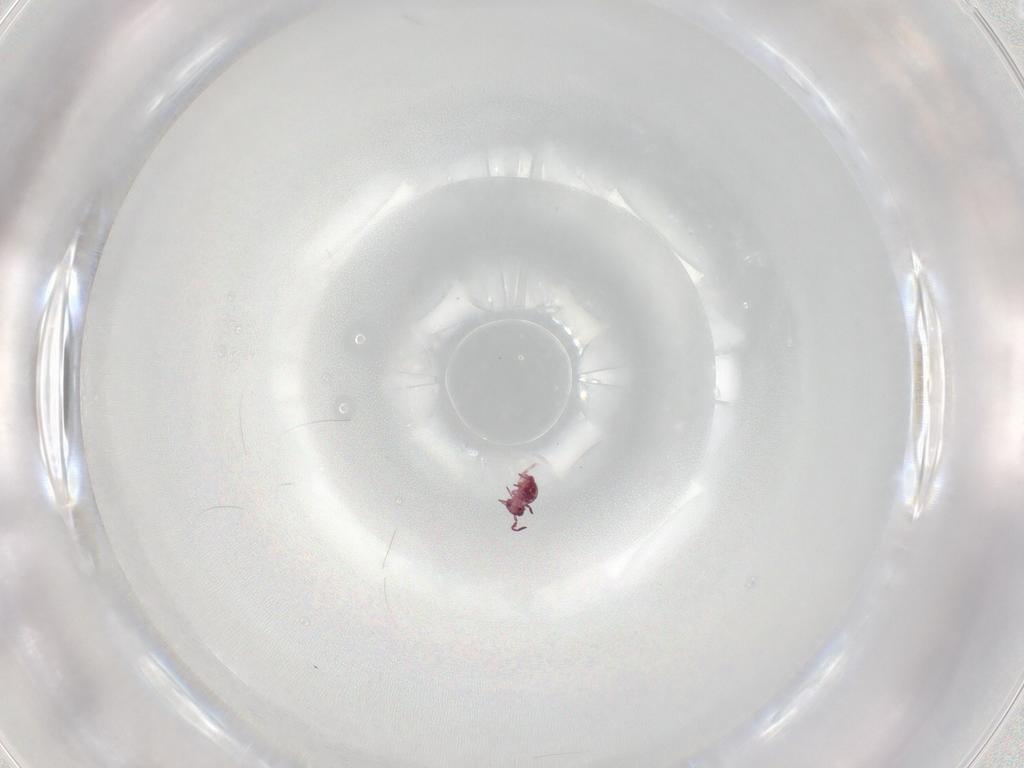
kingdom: Animalia
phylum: Arthropoda
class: Collembola
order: Symphypleona
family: Sminthurididae
